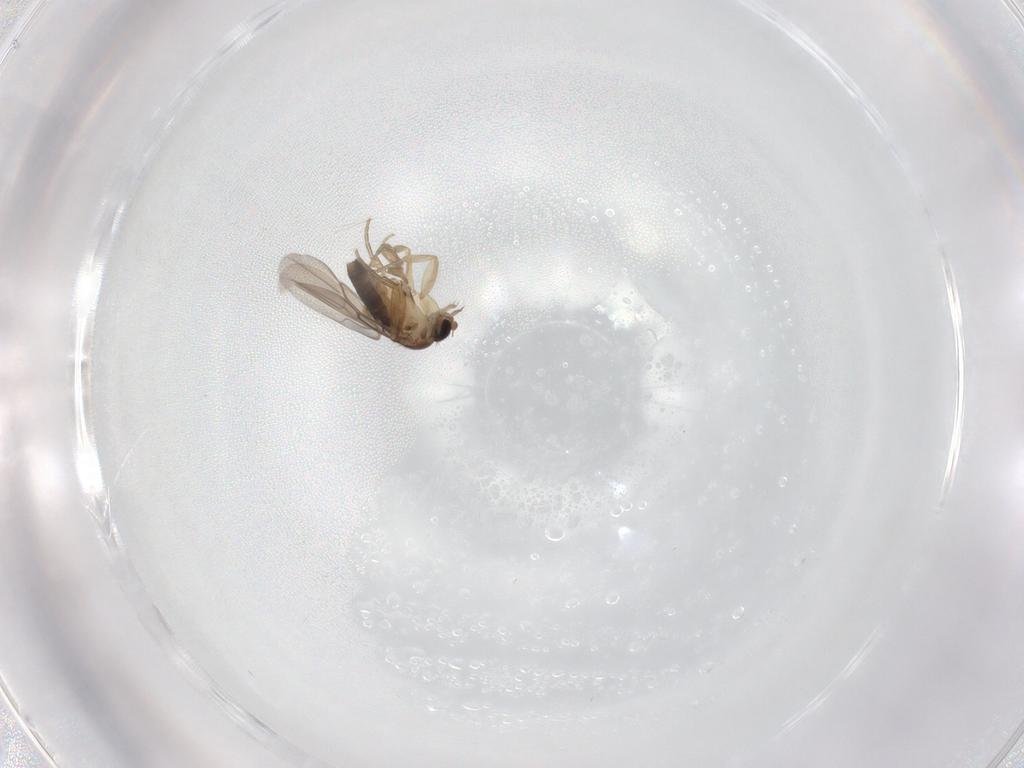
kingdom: Animalia
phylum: Arthropoda
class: Insecta
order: Diptera
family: Phoridae
